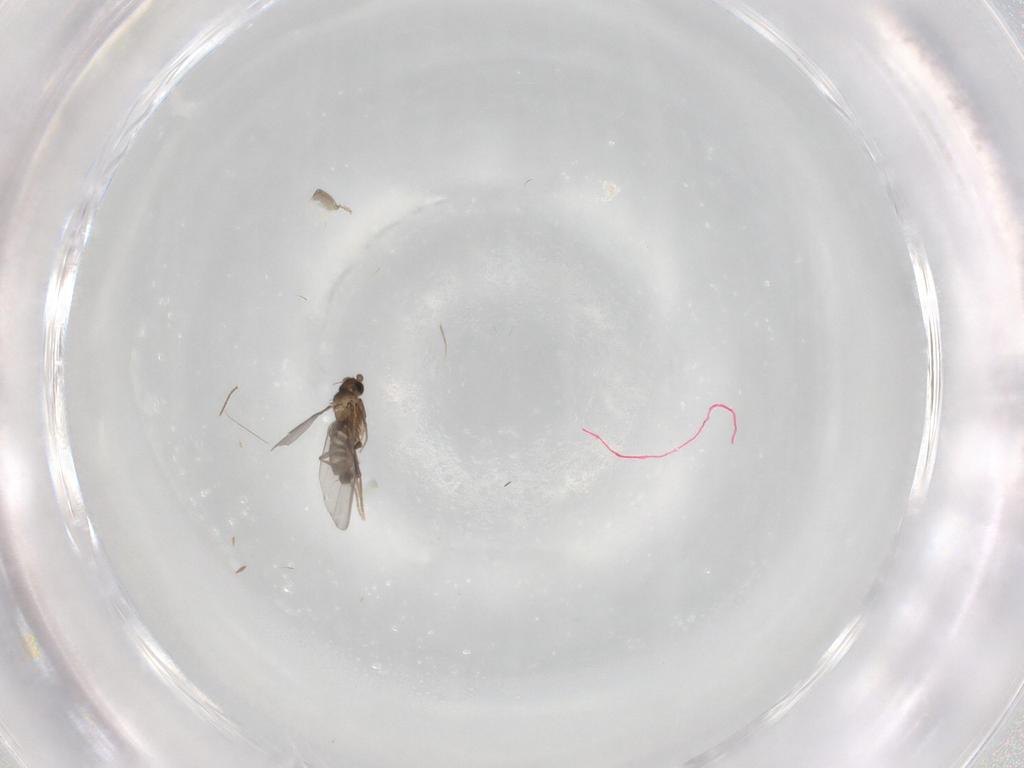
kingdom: Animalia
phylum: Arthropoda
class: Insecta
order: Diptera
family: Phoridae
